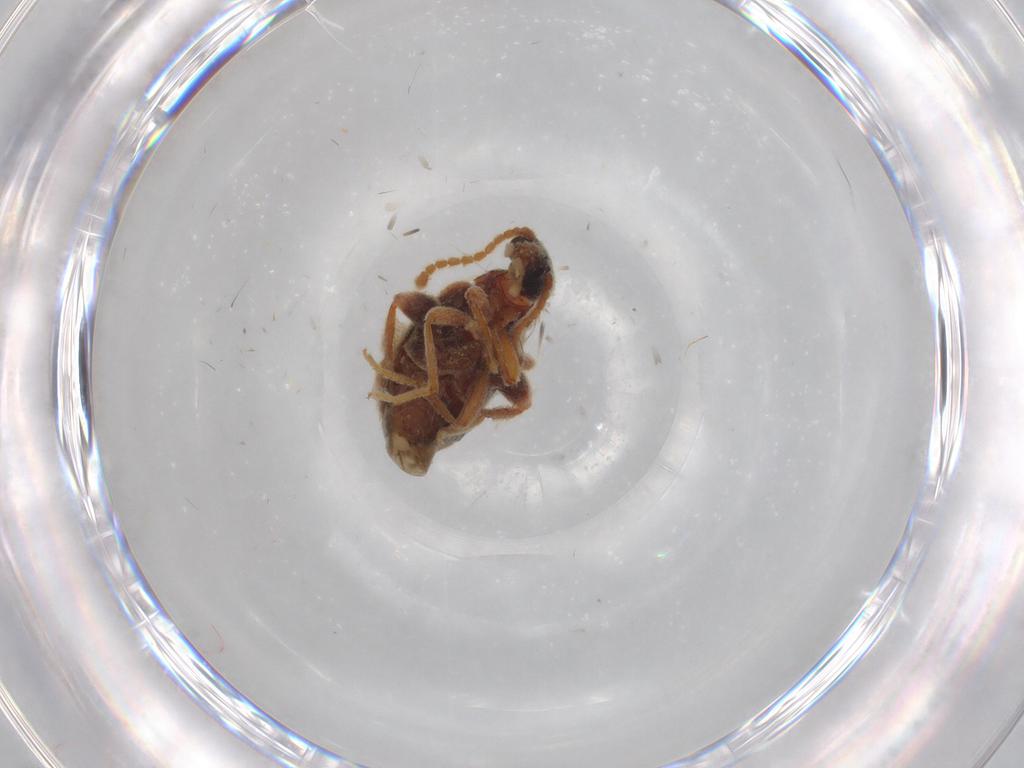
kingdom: Animalia
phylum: Arthropoda
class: Insecta
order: Coleoptera
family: Aderidae
